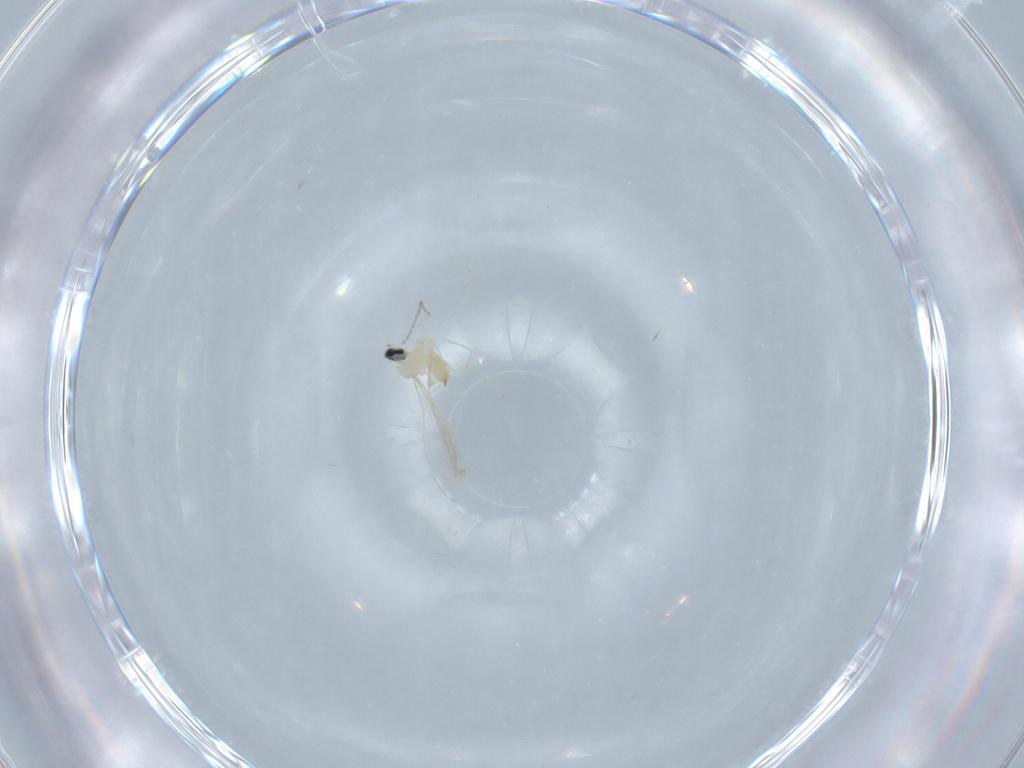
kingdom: Animalia
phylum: Arthropoda
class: Insecta
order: Diptera
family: Cecidomyiidae
